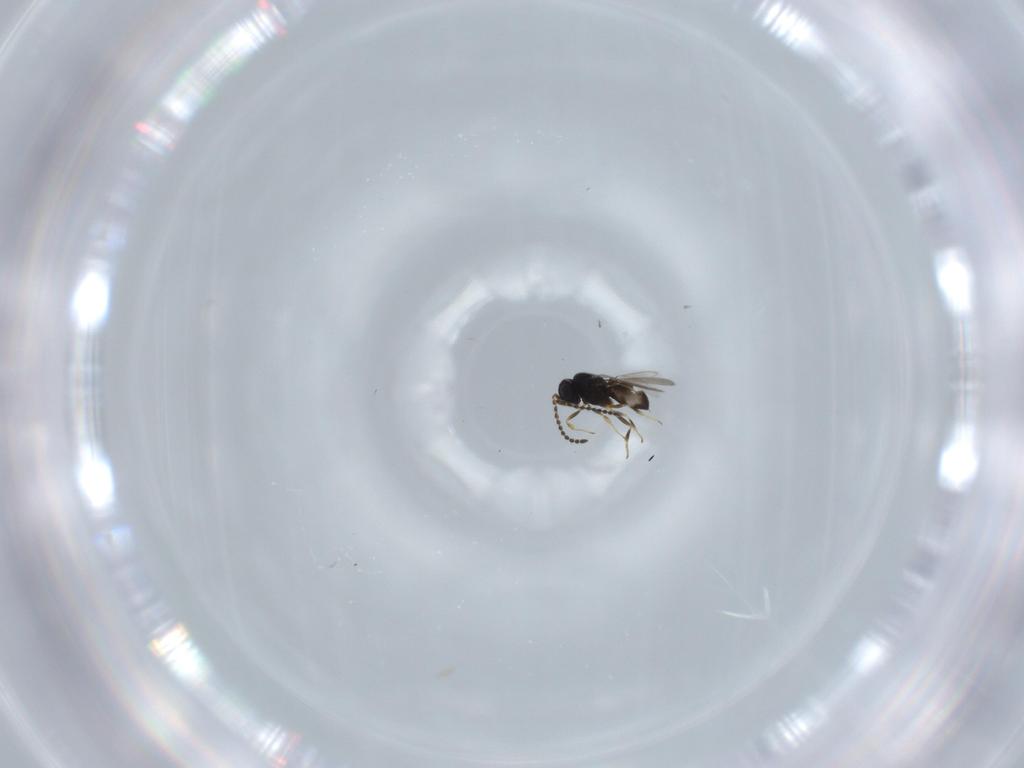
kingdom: Animalia
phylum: Arthropoda
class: Insecta
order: Hymenoptera
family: Scelionidae
